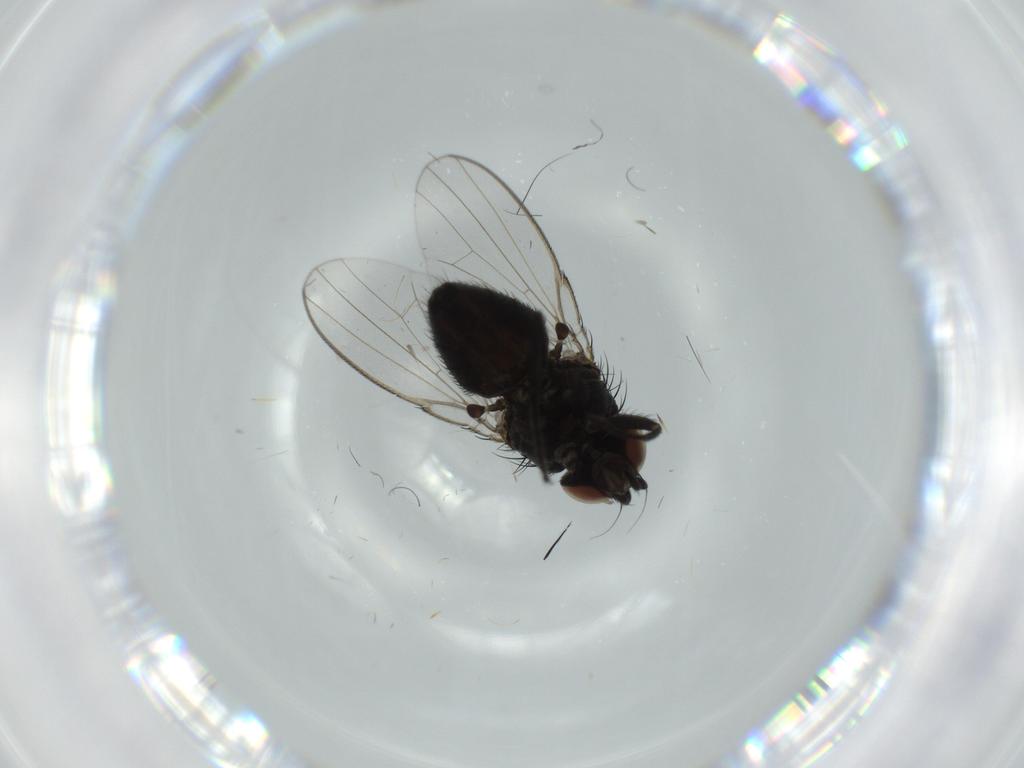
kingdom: Animalia
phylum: Arthropoda
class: Insecta
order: Diptera
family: Milichiidae
